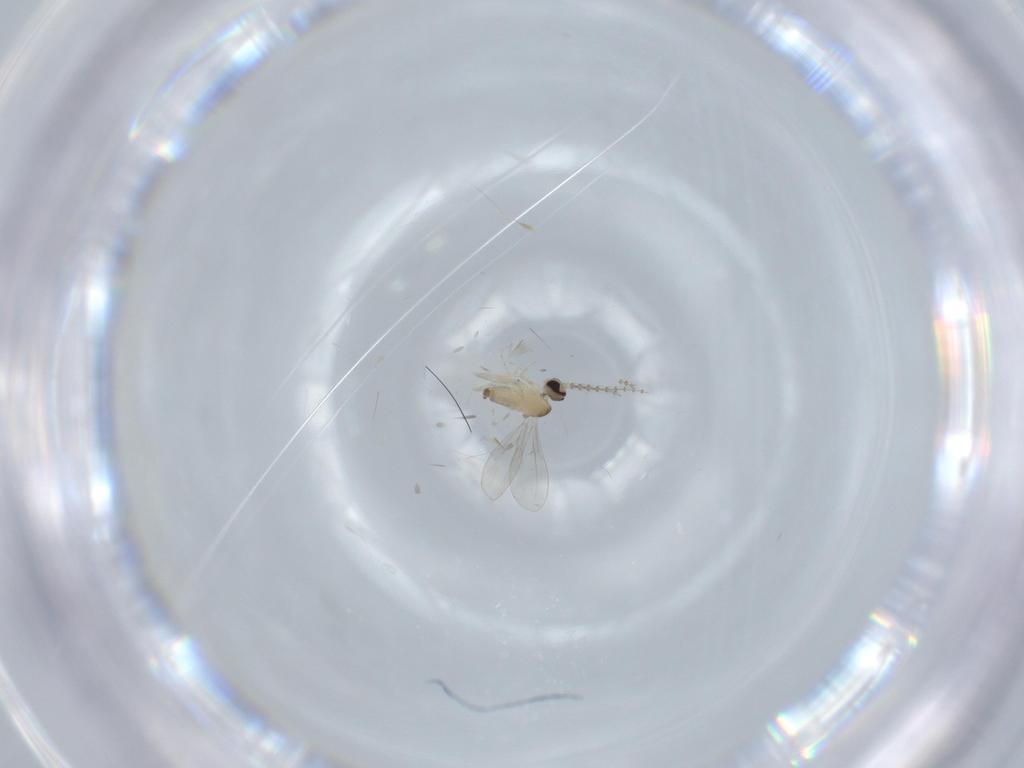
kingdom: Animalia
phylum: Arthropoda
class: Insecta
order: Diptera
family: Cecidomyiidae
